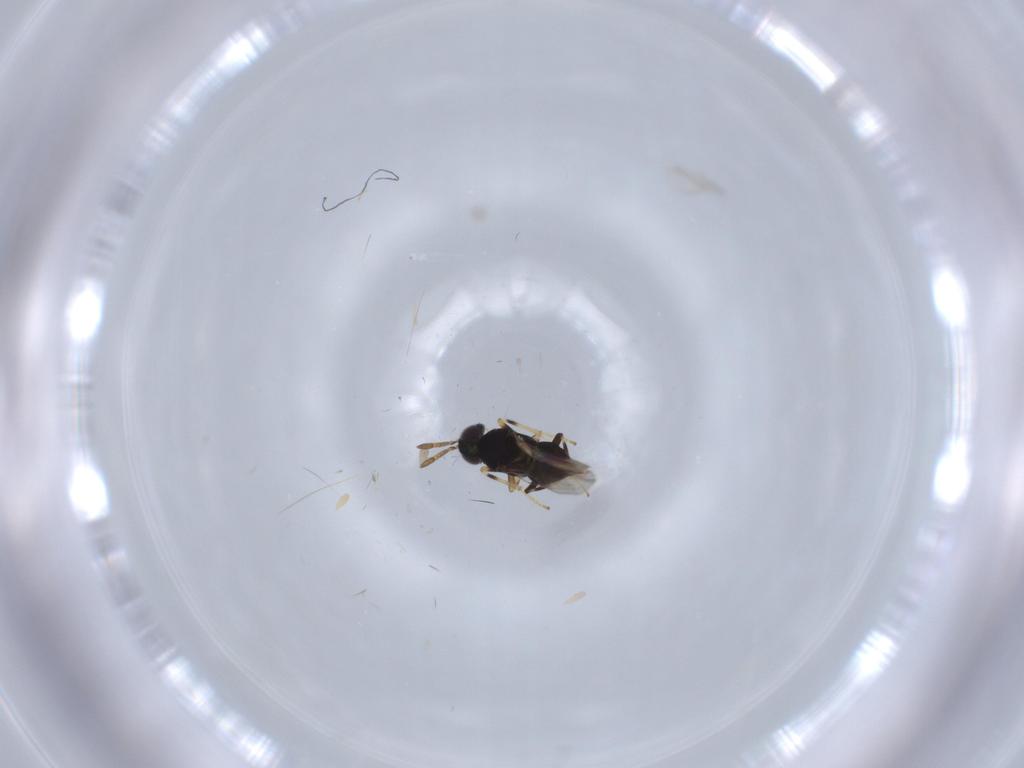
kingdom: Animalia
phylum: Arthropoda
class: Insecta
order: Hymenoptera
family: Encyrtidae
